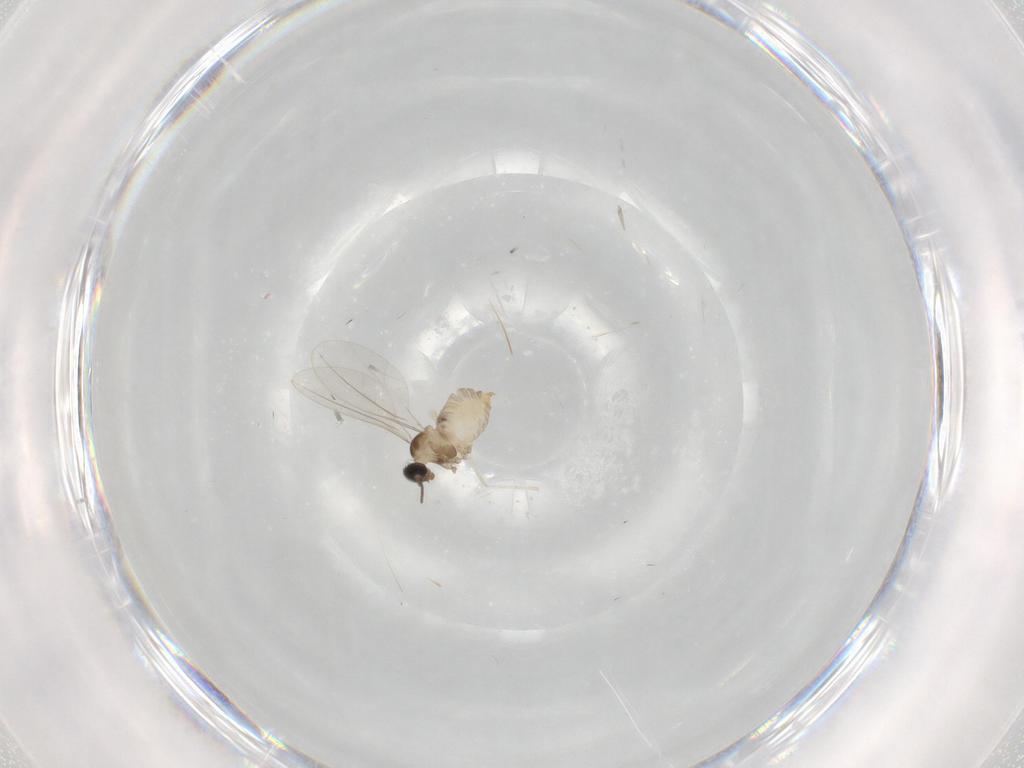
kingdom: Animalia
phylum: Arthropoda
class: Insecta
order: Diptera
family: Cecidomyiidae
